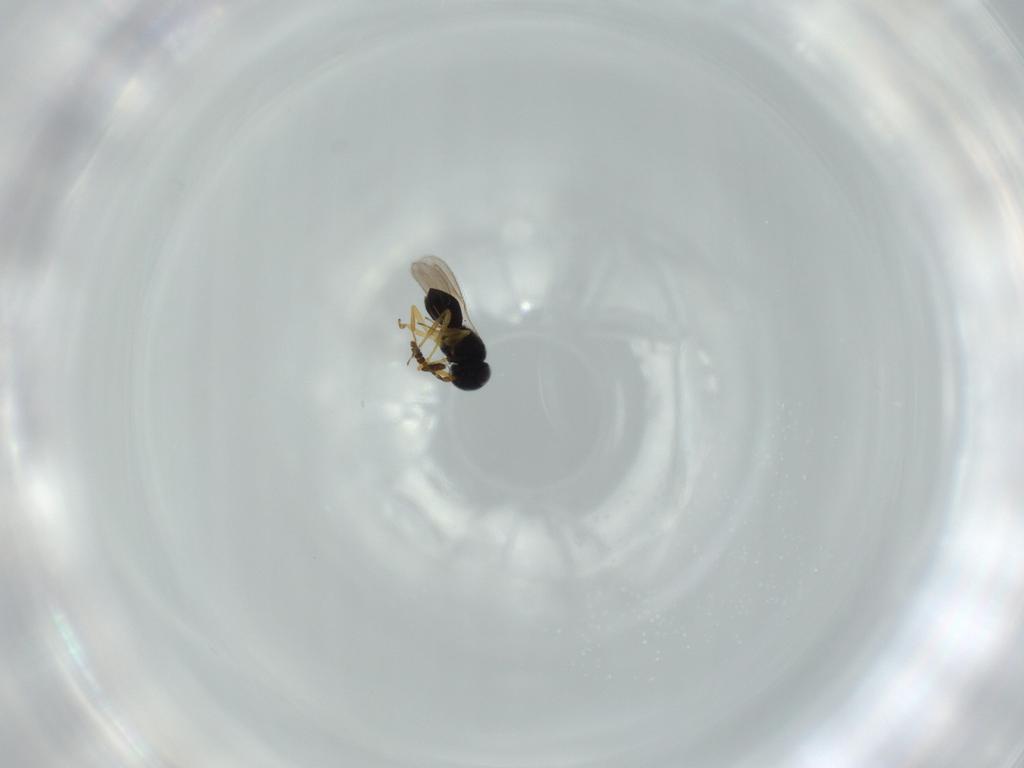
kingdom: Animalia
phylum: Arthropoda
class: Insecta
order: Hymenoptera
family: Scelionidae
